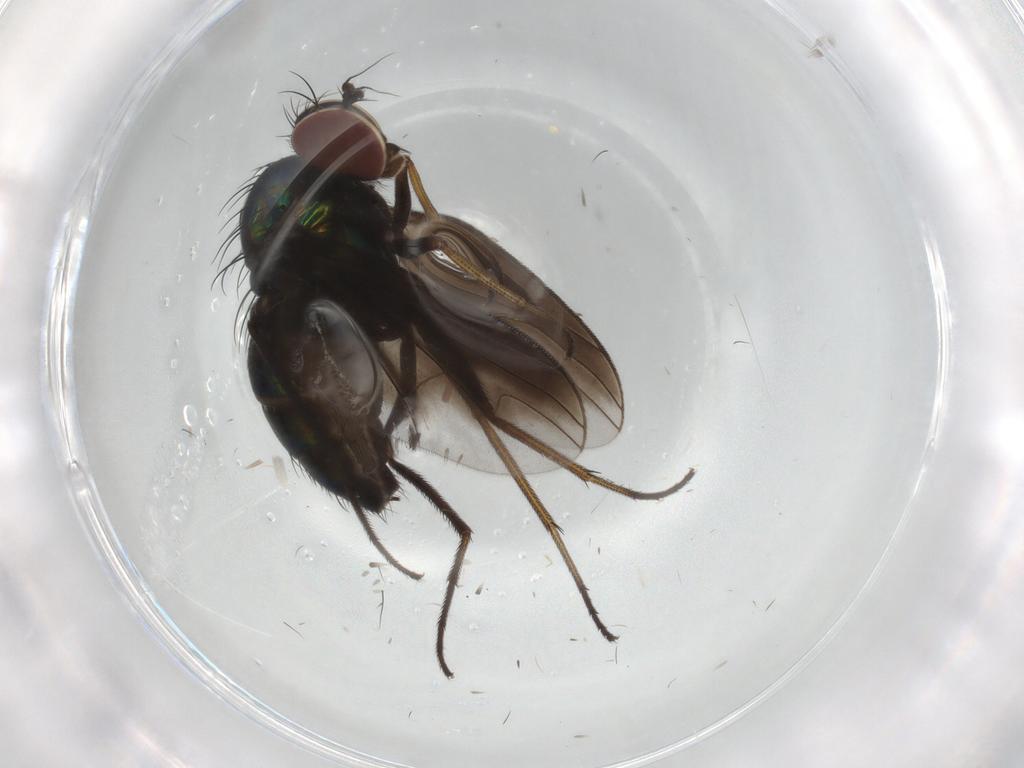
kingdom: Animalia
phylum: Arthropoda
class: Insecta
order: Diptera
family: Dolichopodidae
